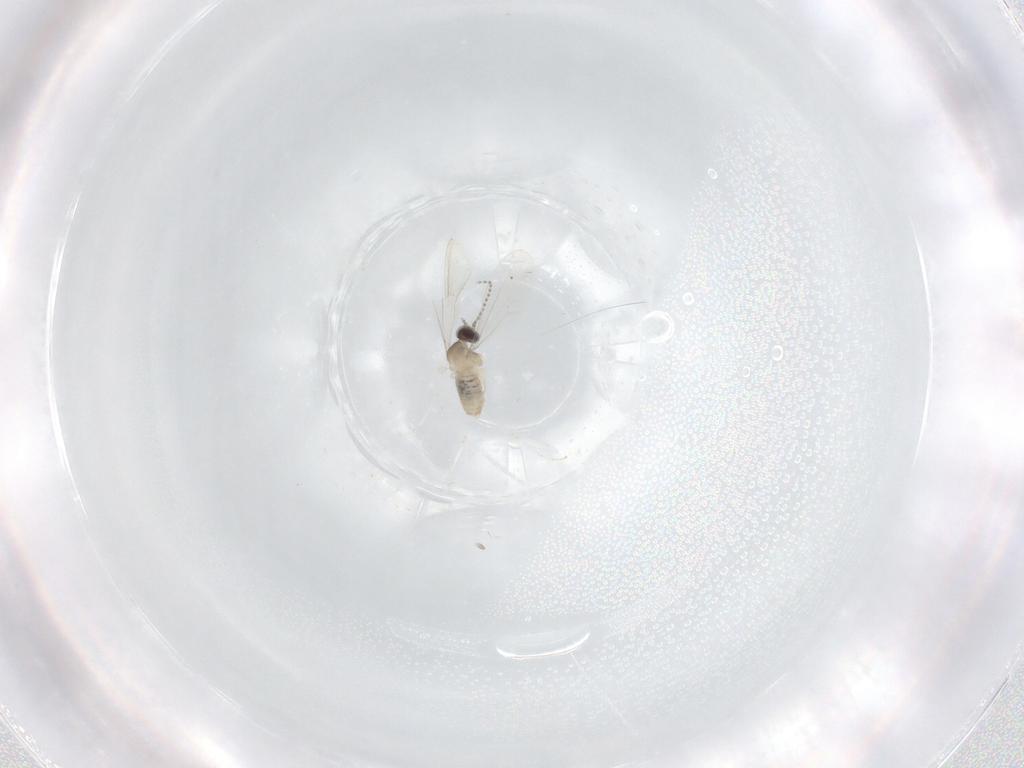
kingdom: Animalia
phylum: Arthropoda
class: Insecta
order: Diptera
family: Cecidomyiidae
